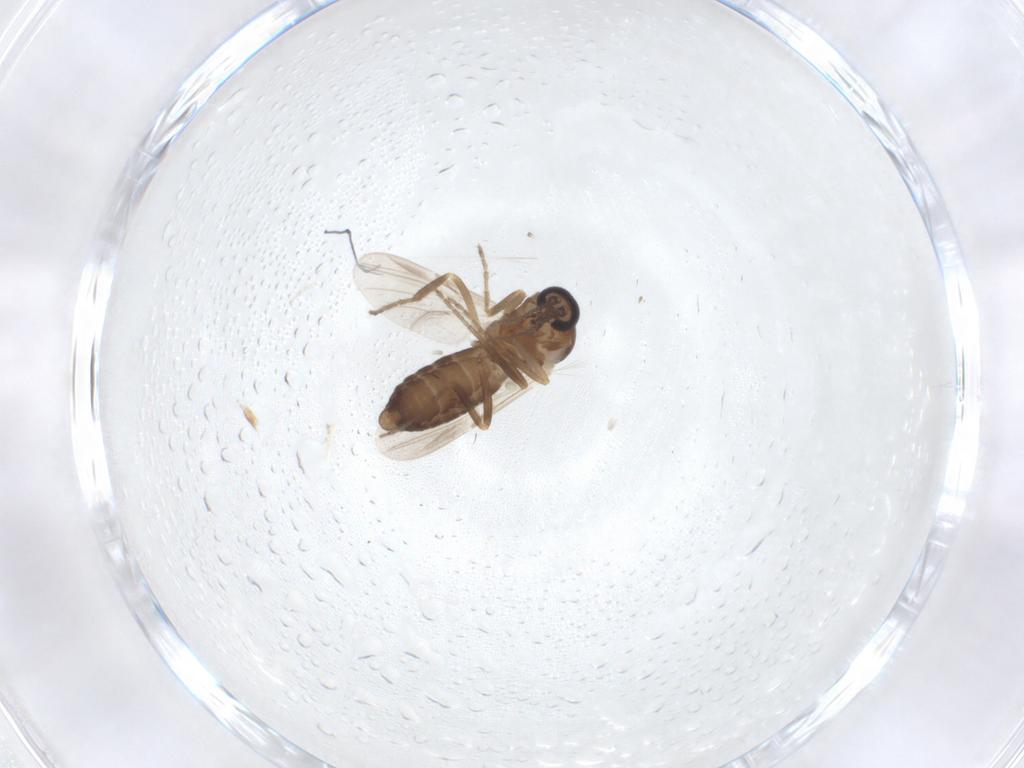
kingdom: Animalia
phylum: Arthropoda
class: Insecta
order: Diptera
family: Ceratopogonidae
